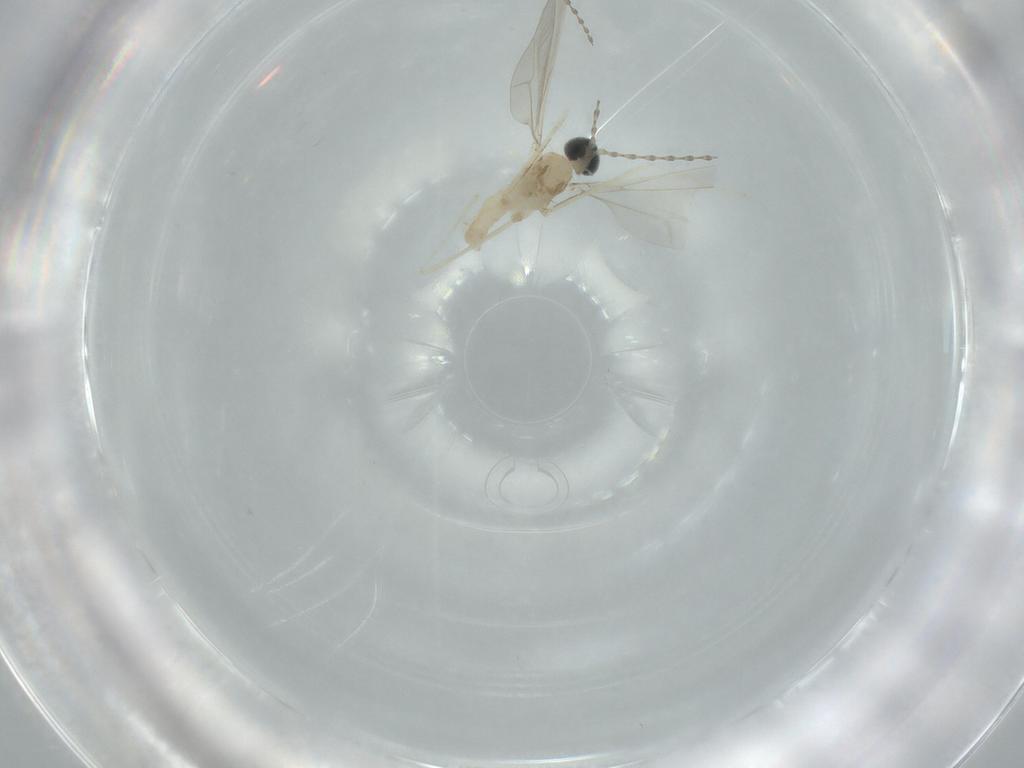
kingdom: Animalia
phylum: Arthropoda
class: Insecta
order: Diptera
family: Cecidomyiidae
